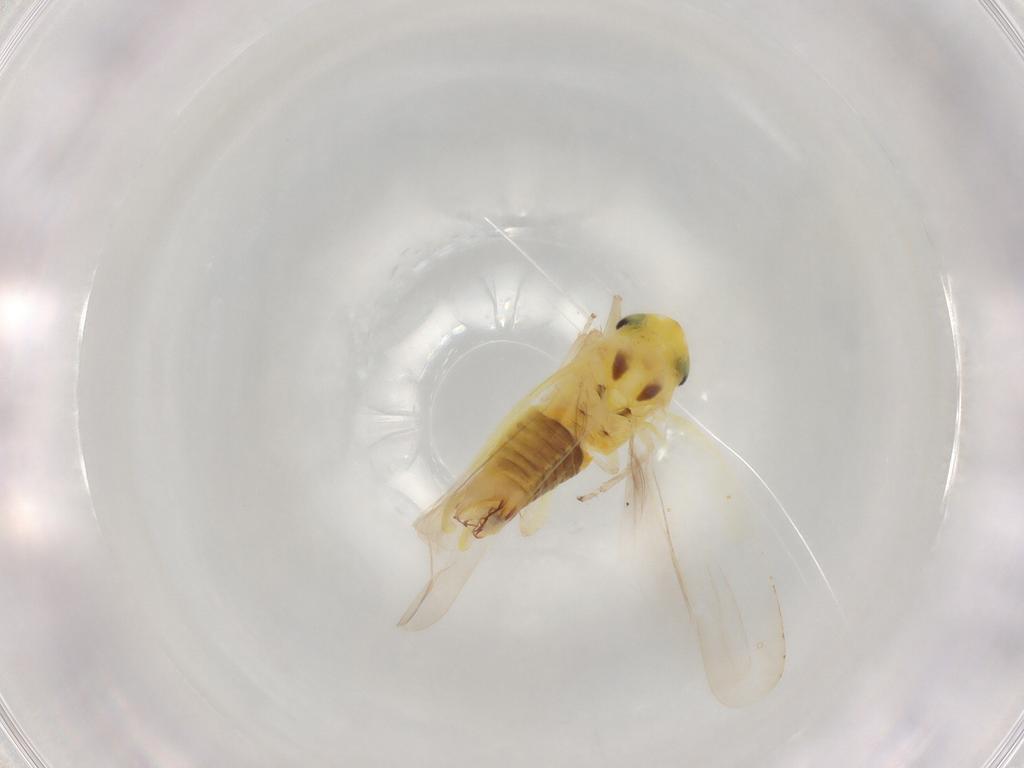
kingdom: Animalia
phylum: Arthropoda
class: Insecta
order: Hemiptera
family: Cicadellidae
